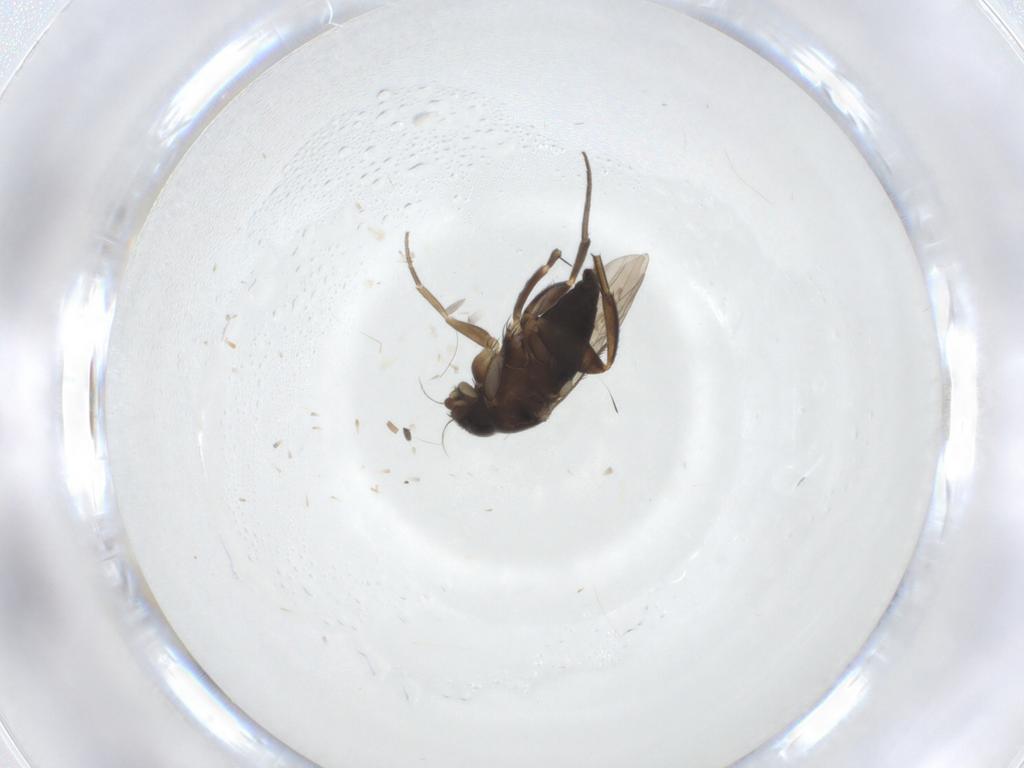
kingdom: Animalia
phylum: Arthropoda
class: Insecta
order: Diptera
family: Phoridae
